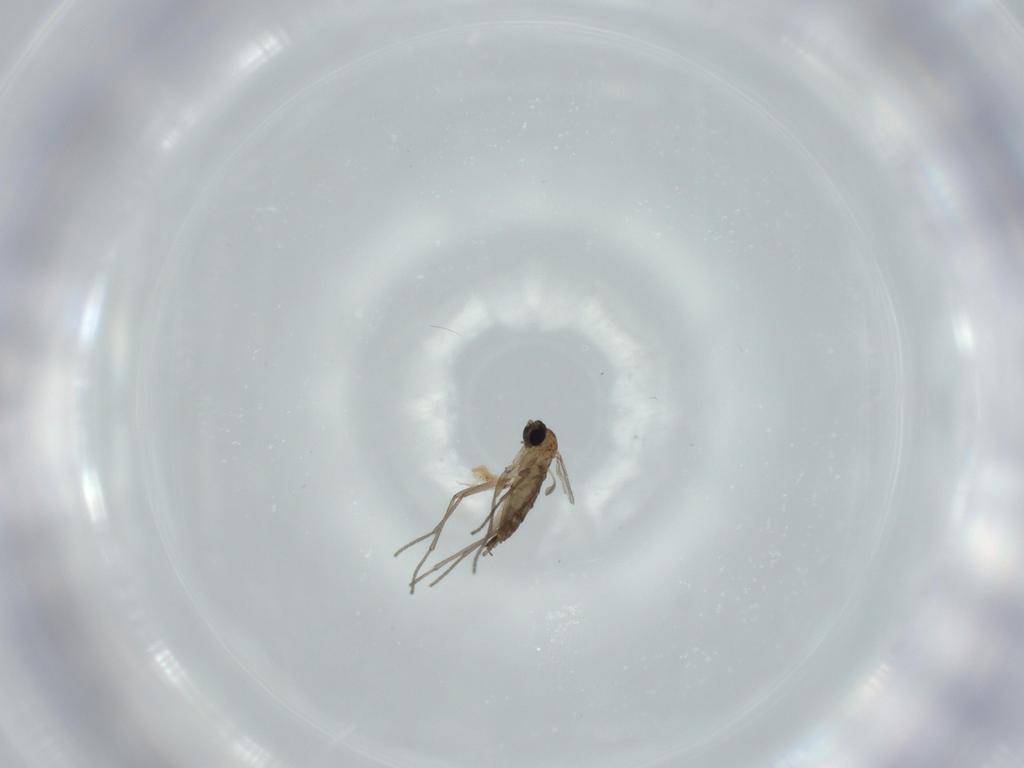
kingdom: Animalia
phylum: Arthropoda
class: Insecta
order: Diptera
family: Sciaridae
